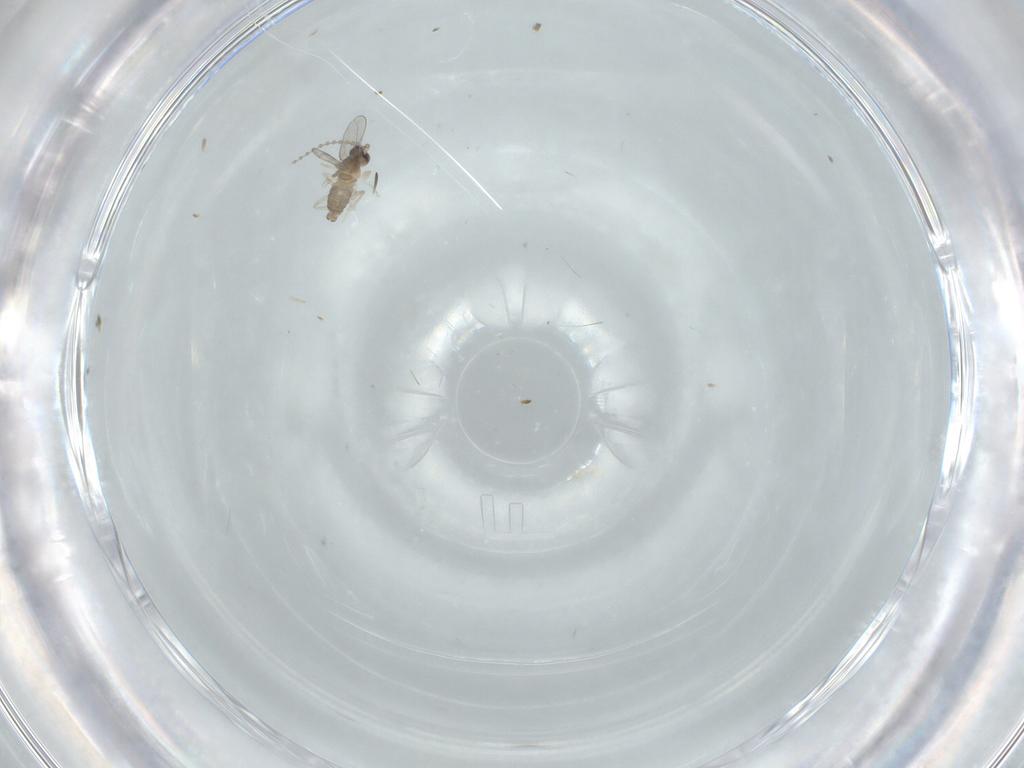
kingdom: Animalia
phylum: Arthropoda
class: Insecta
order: Diptera
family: Cecidomyiidae
